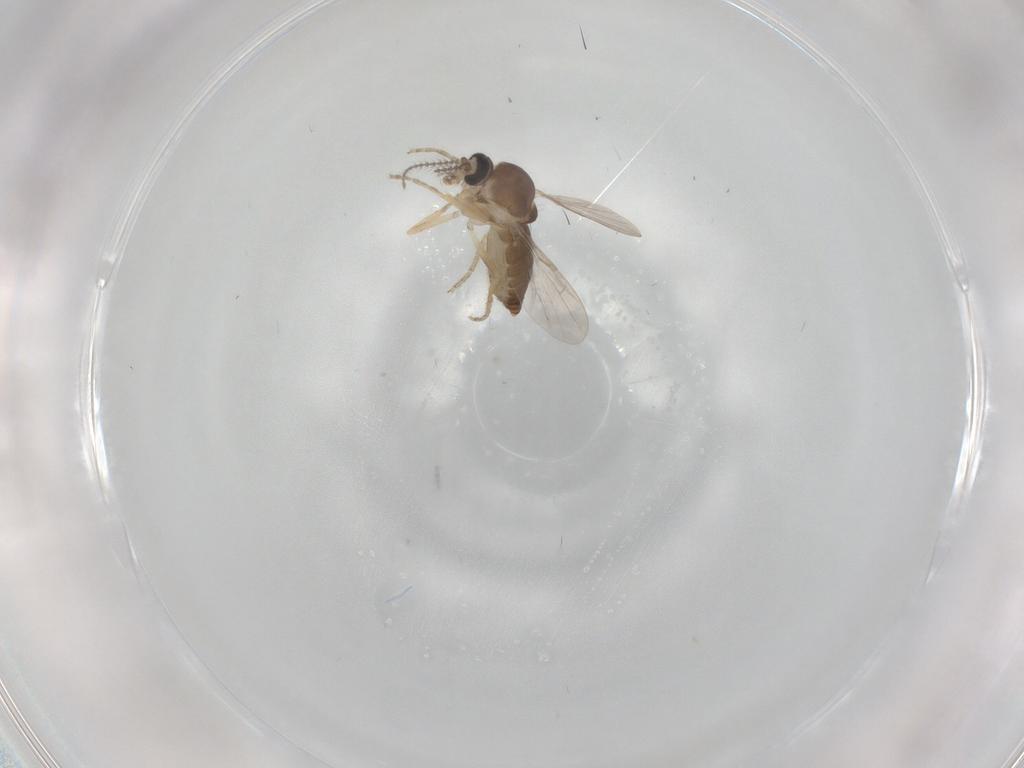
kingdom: Animalia
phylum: Arthropoda
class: Insecta
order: Diptera
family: Ceratopogonidae
